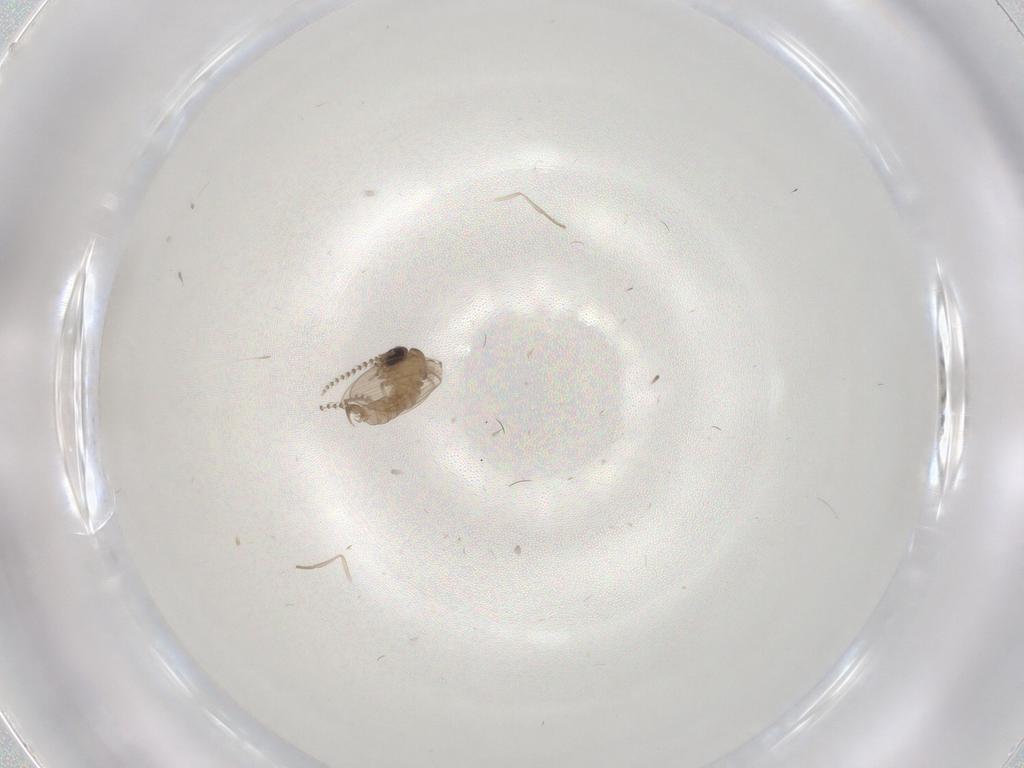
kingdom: Animalia
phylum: Arthropoda
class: Insecta
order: Diptera
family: Psychodidae
